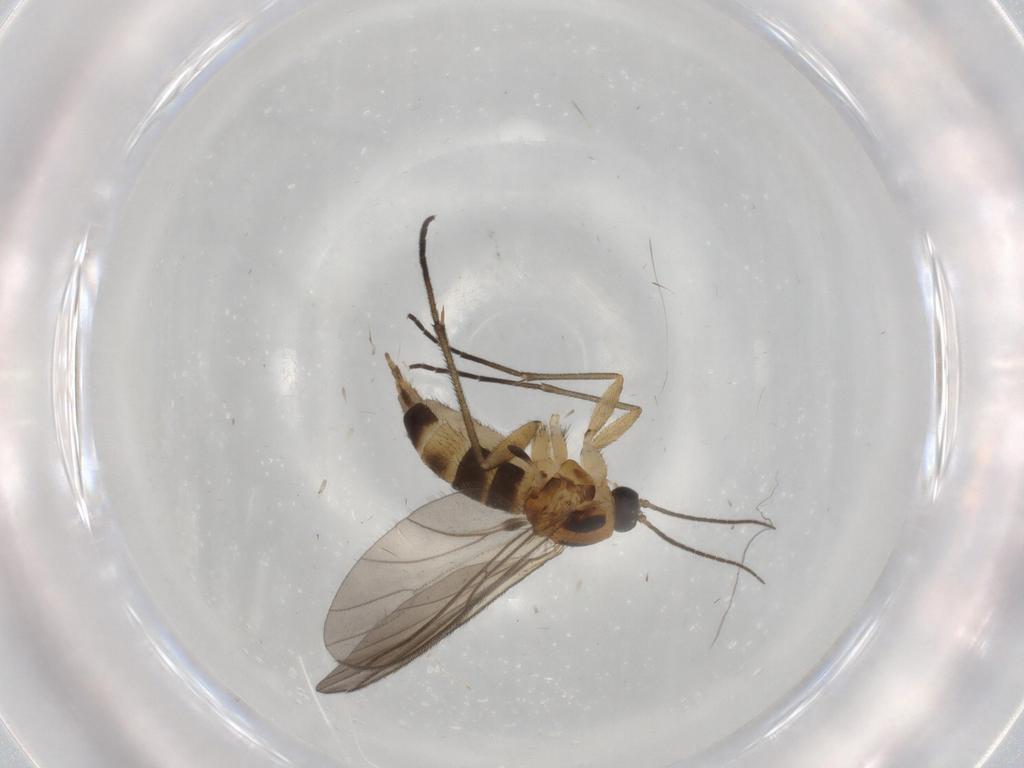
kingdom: Animalia
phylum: Arthropoda
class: Insecta
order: Diptera
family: Sciaridae
